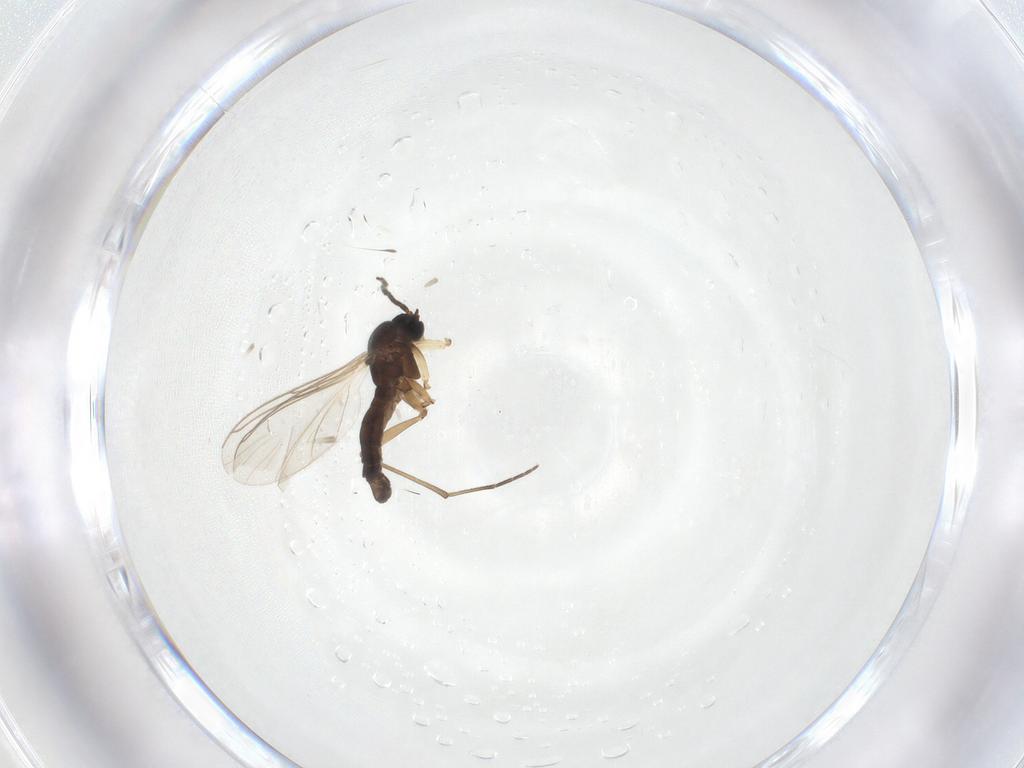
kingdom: Animalia
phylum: Arthropoda
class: Insecta
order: Diptera
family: Heleomyzidae
